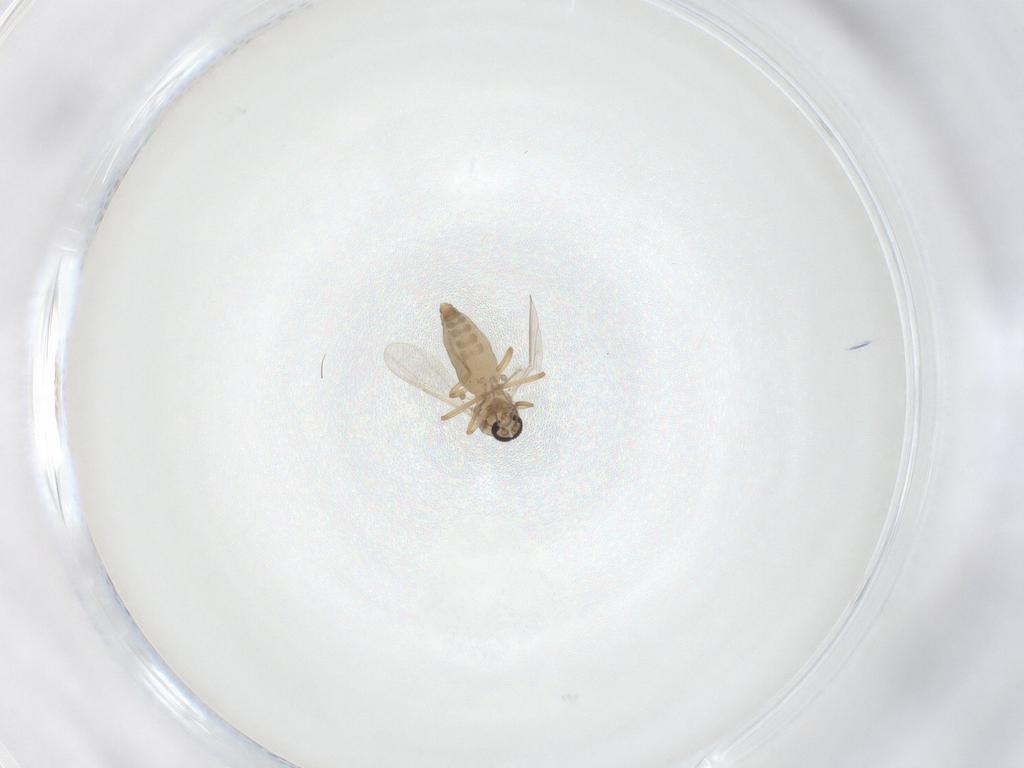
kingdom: Animalia
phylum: Arthropoda
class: Insecta
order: Diptera
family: Ceratopogonidae
